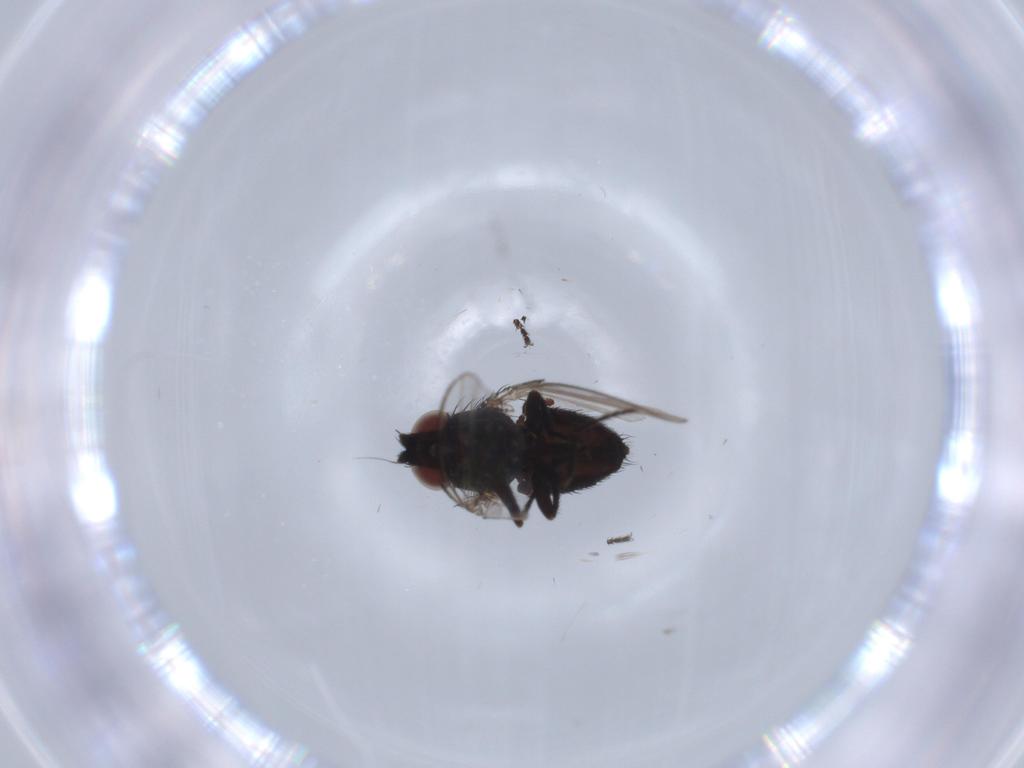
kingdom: Animalia
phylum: Arthropoda
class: Insecta
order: Diptera
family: Milichiidae
